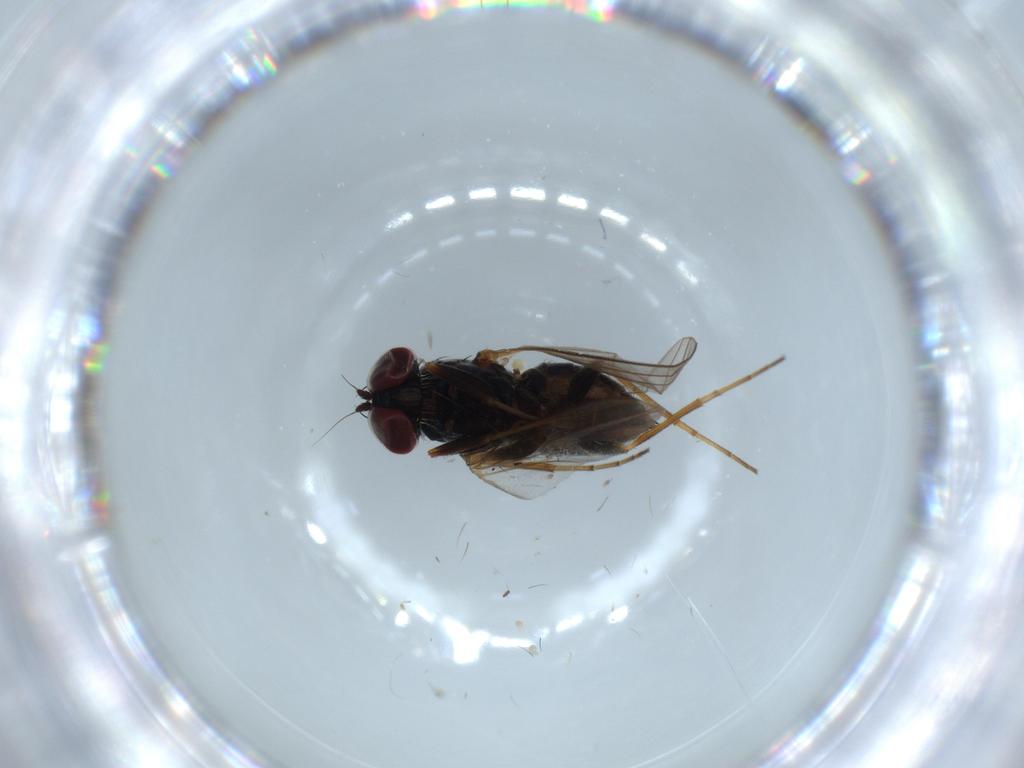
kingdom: Animalia
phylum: Arthropoda
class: Insecta
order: Diptera
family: Dolichopodidae
